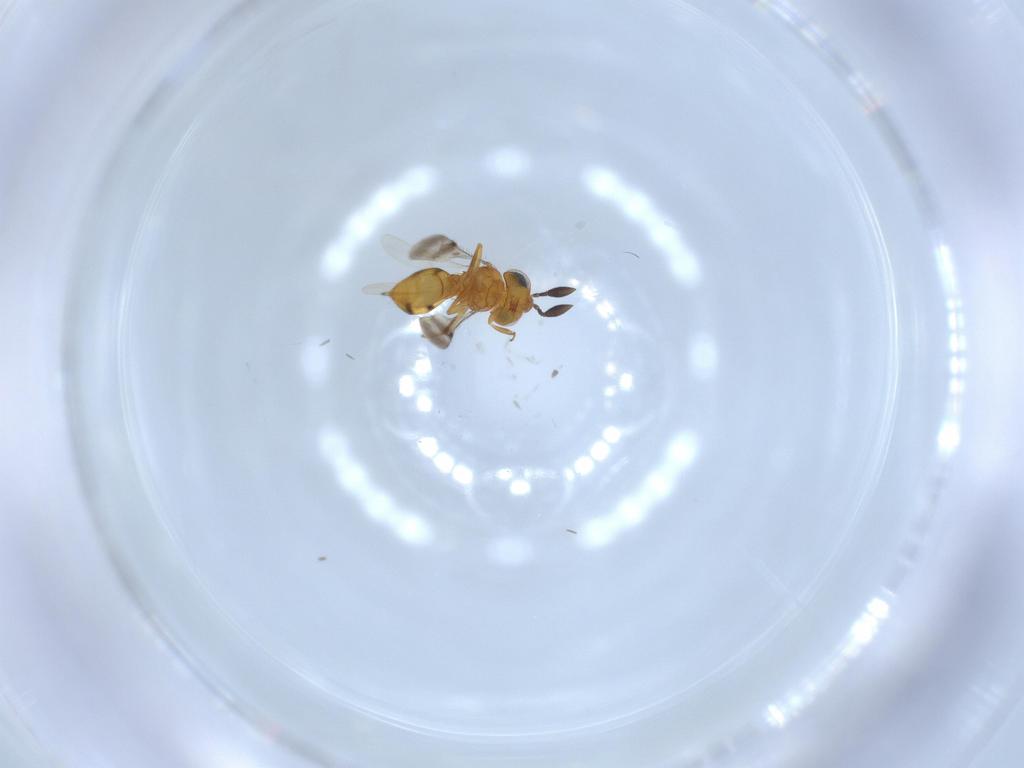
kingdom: Animalia
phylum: Arthropoda
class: Insecta
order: Hymenoptera
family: Scelionidae
